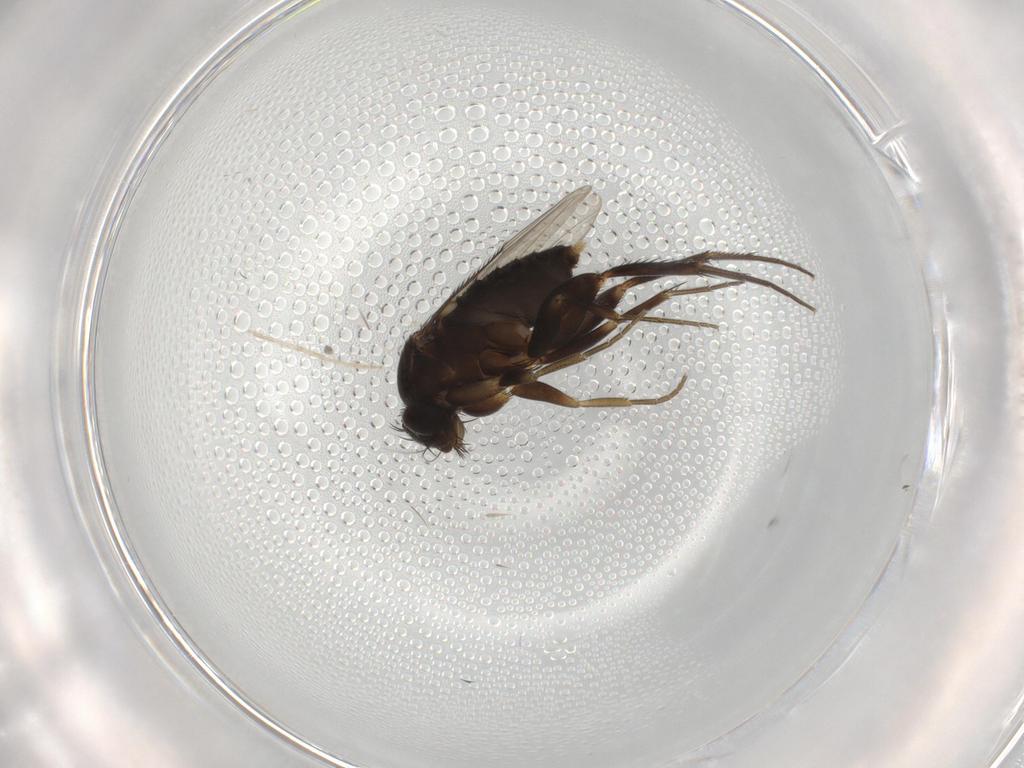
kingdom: Animalia
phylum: Arthropoda
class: Insecta
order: Diptera
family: Phoridae
